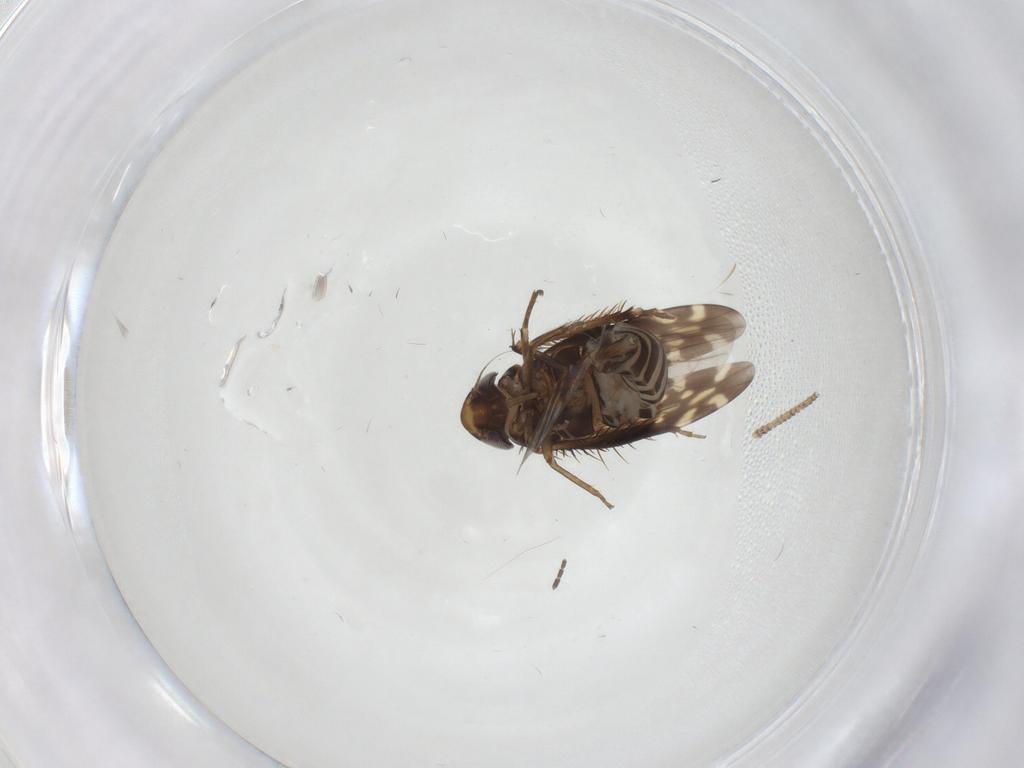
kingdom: Animalia
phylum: Arthropoda
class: Insecta
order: Hemiptera
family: Cicadellidae
